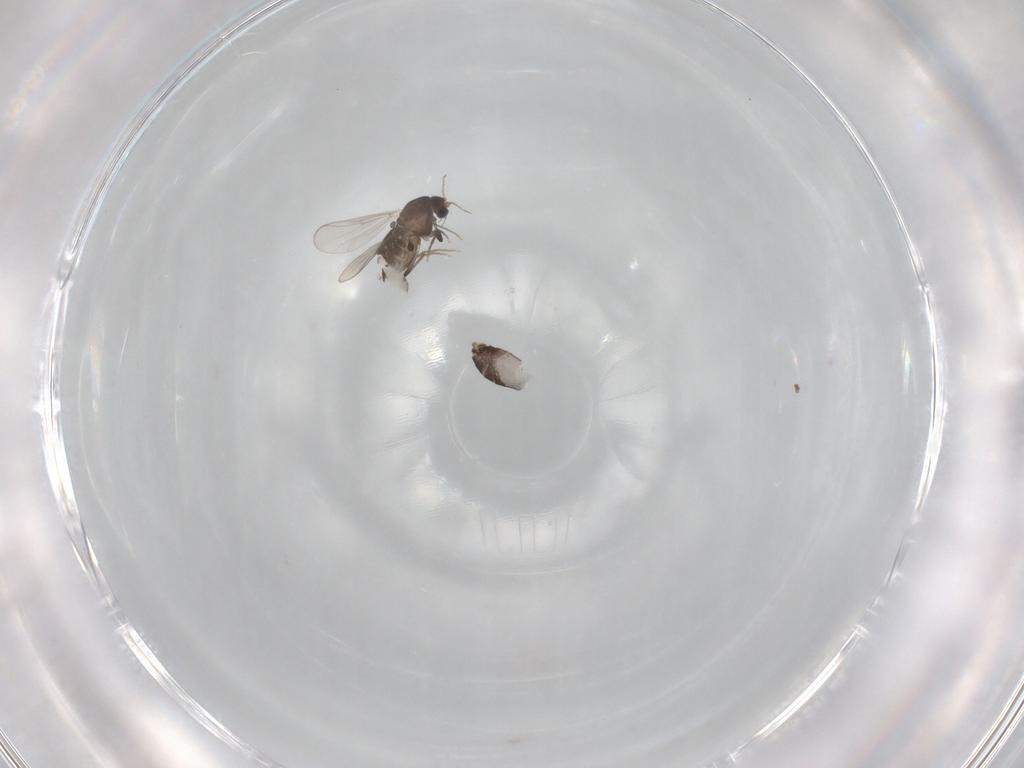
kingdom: Animalia
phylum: Arthropoda
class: Insecta
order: Diptera
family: Chironomidae
